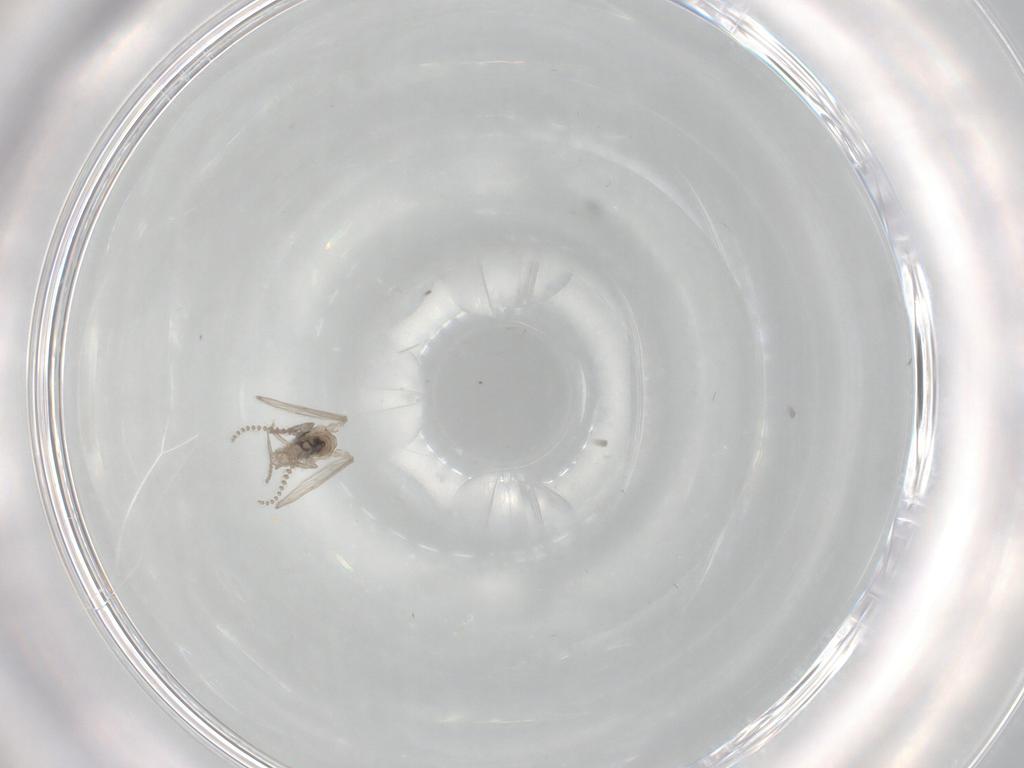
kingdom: Animalia
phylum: Arthropoda
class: Insecta
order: Diptera
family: Psychodidae
